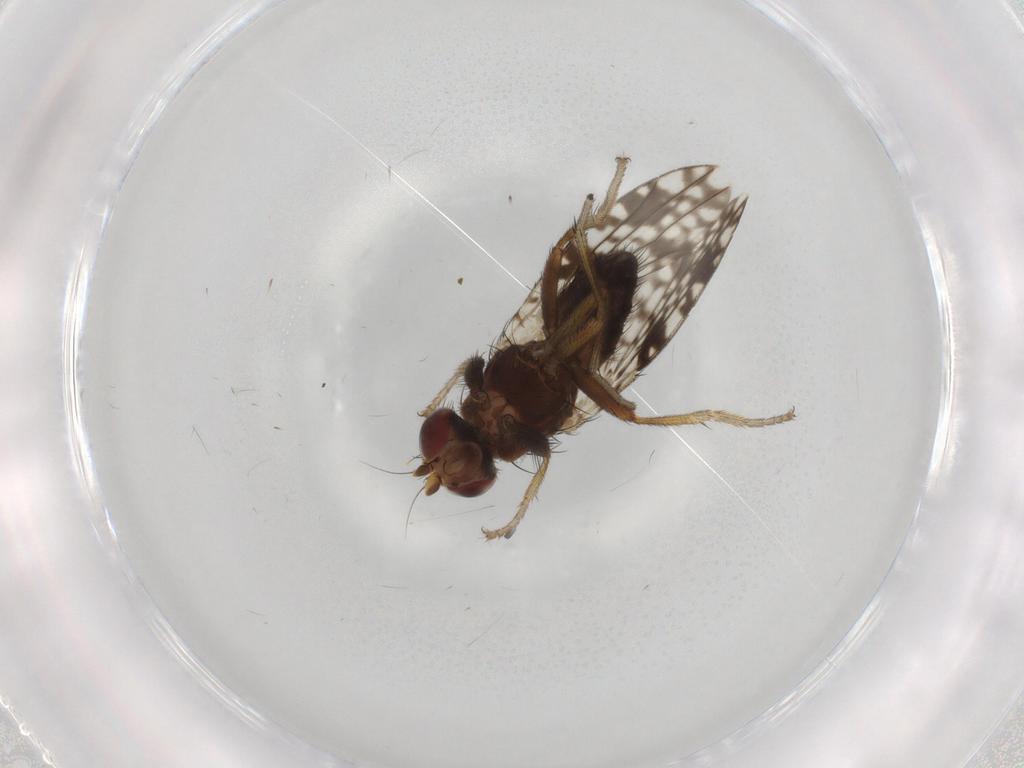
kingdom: Animalia
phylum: Arthropoda
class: Insecta
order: Diptera
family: Tephritidae
